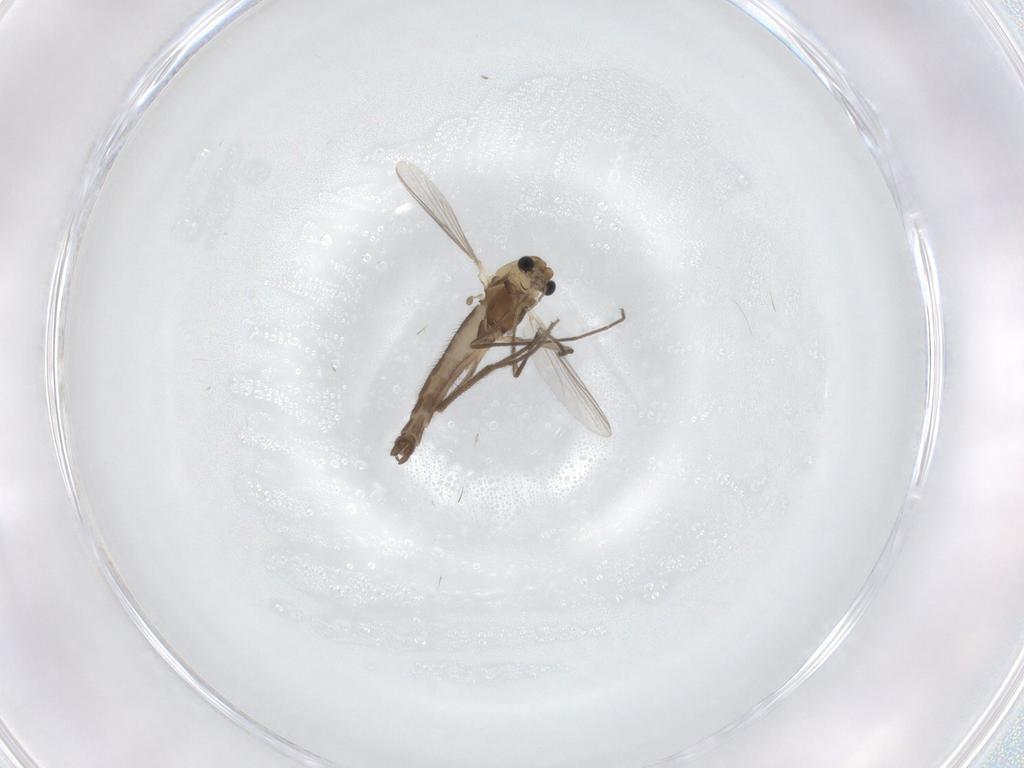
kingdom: Animalia
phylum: Arthropoda
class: Insecta
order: Diptera
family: Chironomidae
